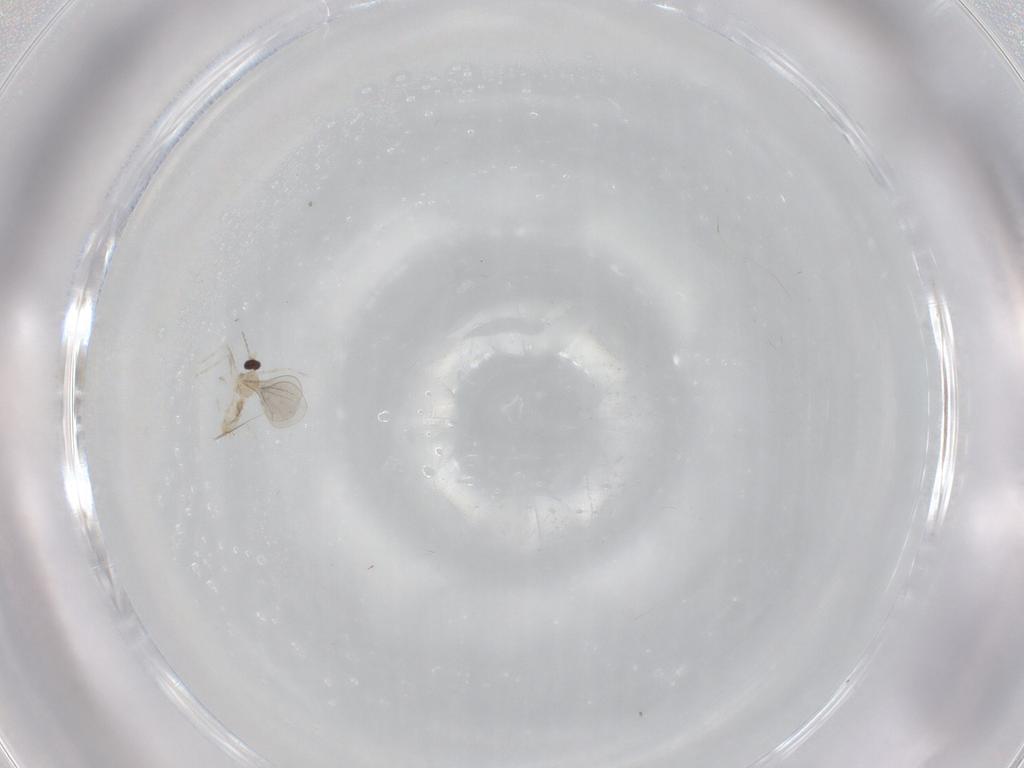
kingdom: Animalia
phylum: Arthropoda
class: Insecta
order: Diptera
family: Cecidomyiidae
